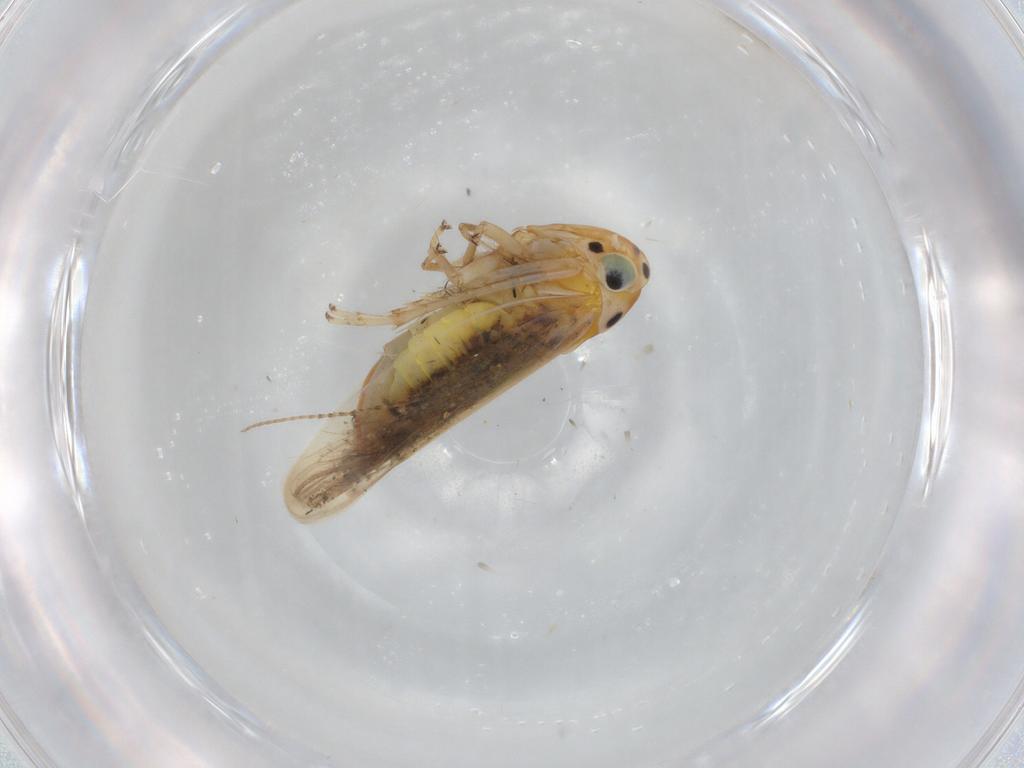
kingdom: Animalia
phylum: Arthropoda
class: Insecta
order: Hemiptera
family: Cicadellidae
